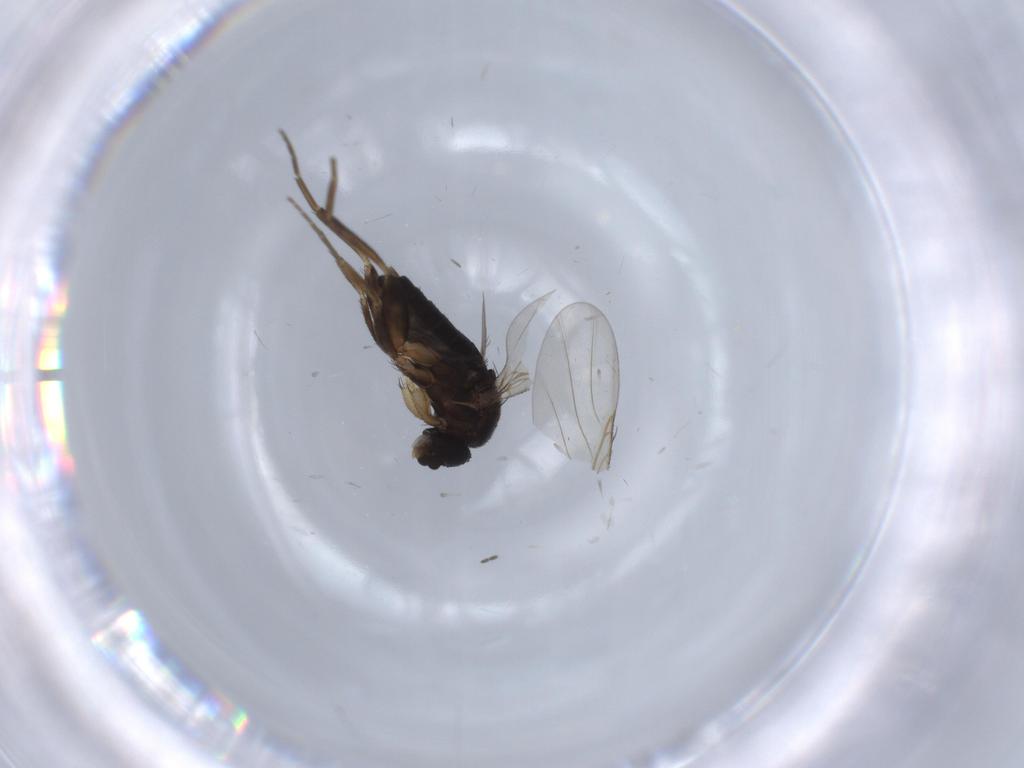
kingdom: Animalia
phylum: Arthropoda
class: Insecta
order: Diptera
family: Phoridae
